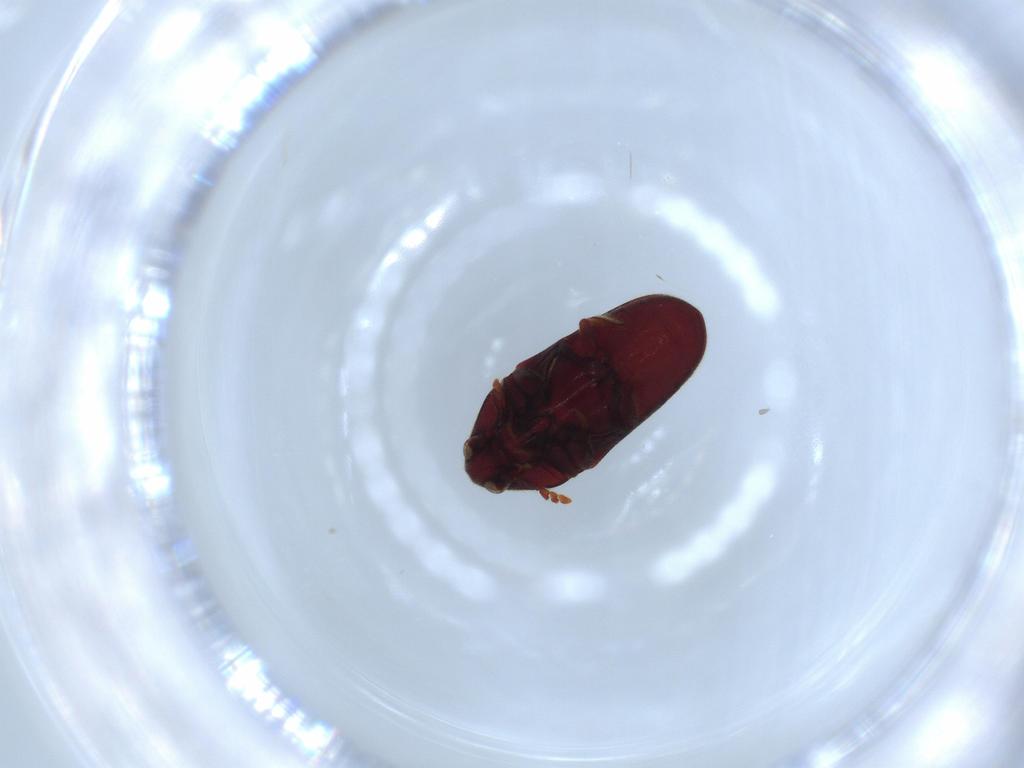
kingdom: Animalia
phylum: Arthropoda
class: Insecta
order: Coleoptera
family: Throscidae
